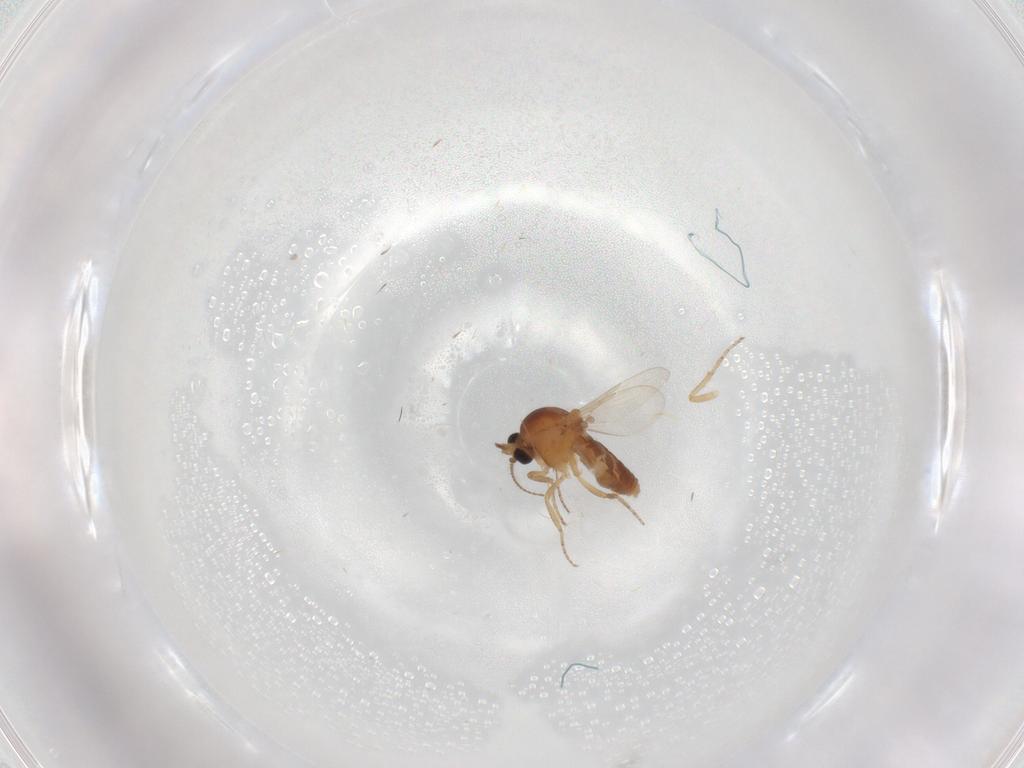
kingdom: Animalia
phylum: Arthropoda
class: Insecta
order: Diptera
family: Ceratopogonidae
